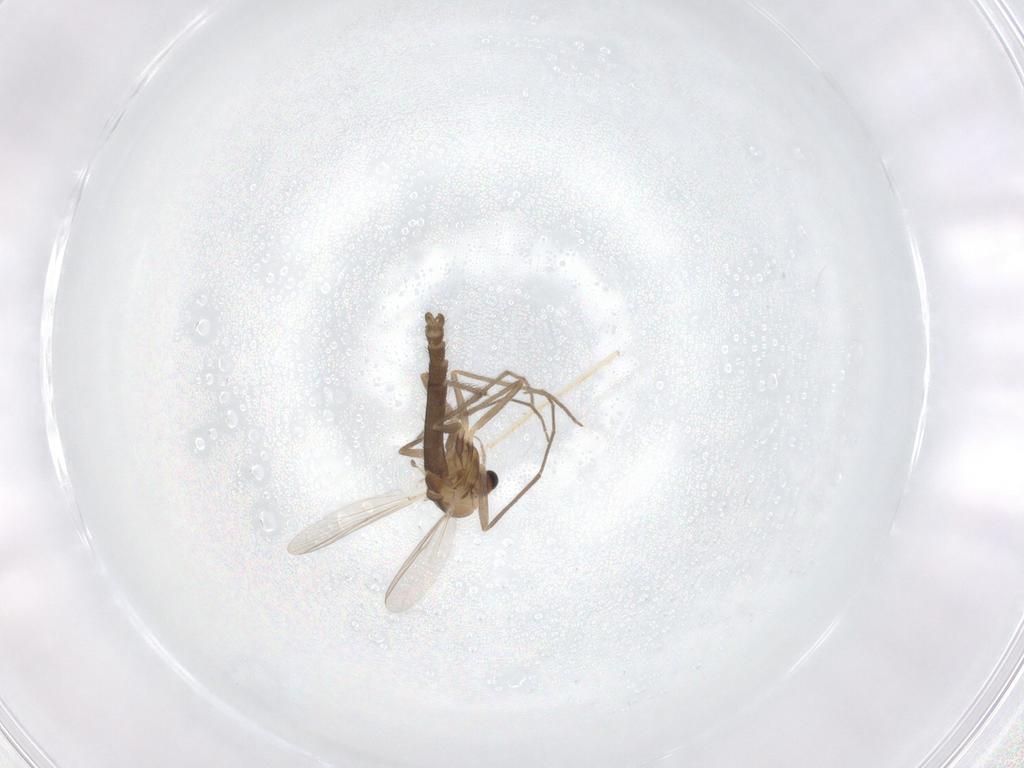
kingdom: Animalia
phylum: Arthropoda
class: Insecta
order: Diptera
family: Chironomidae
